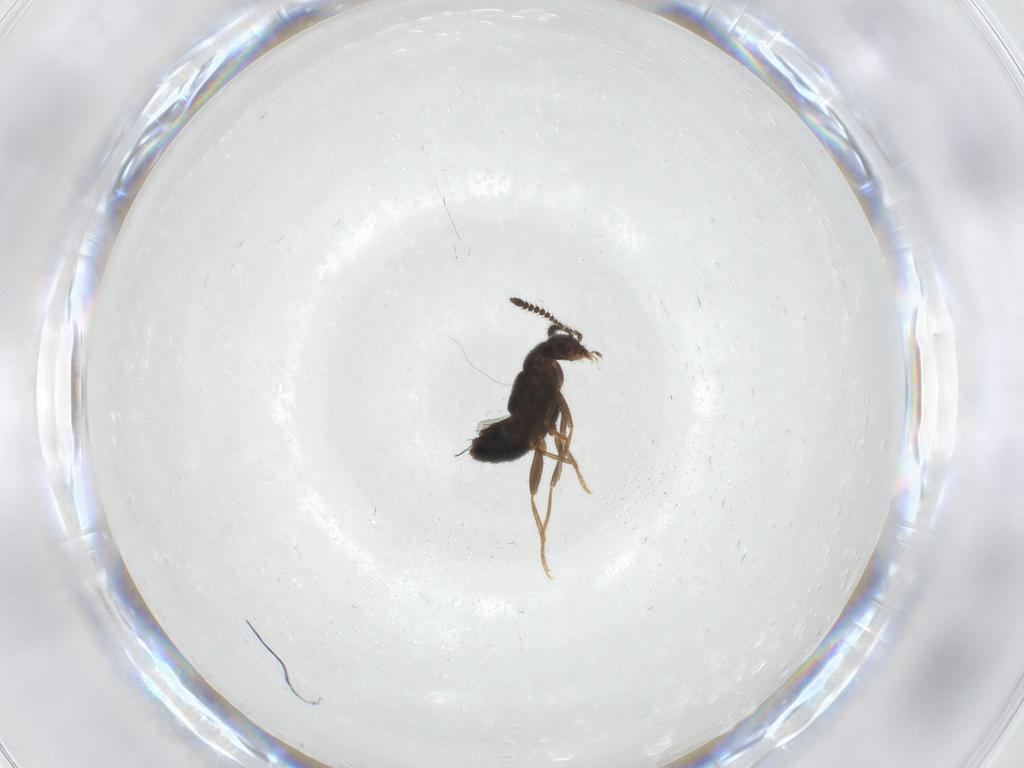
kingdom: Animalia
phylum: Arthropoda
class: Insecta
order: Coleoptera
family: Staphylinidae
